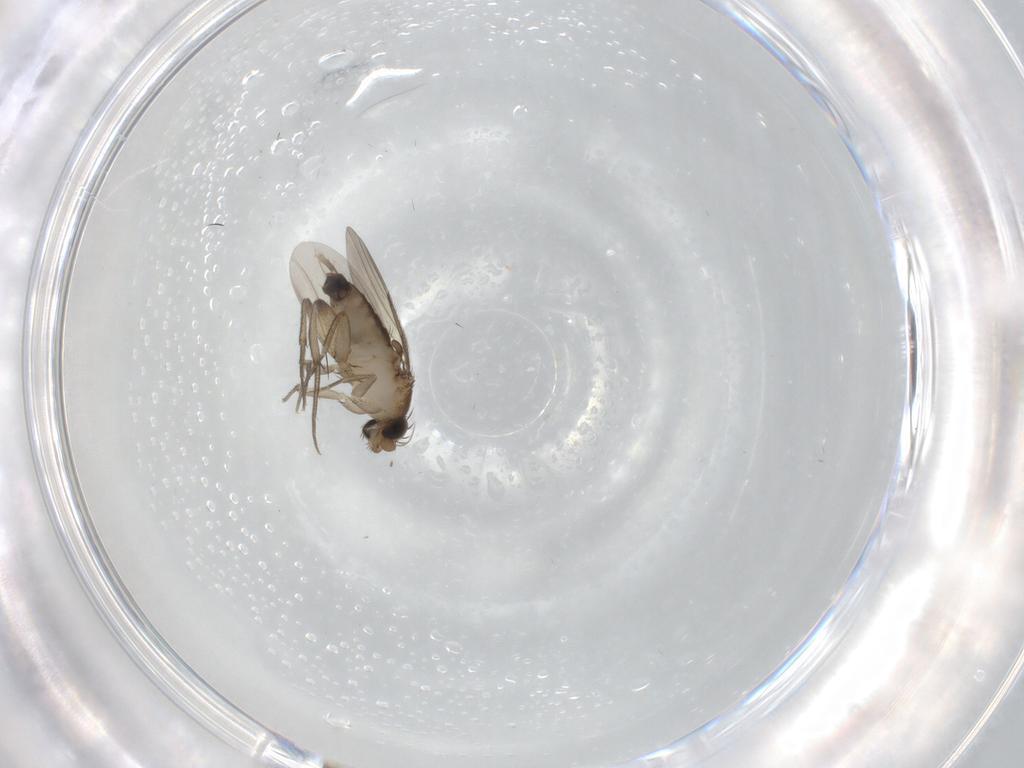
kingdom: Animalia
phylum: Arthropoda
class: Insecta
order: Diptera
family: Phoridae
